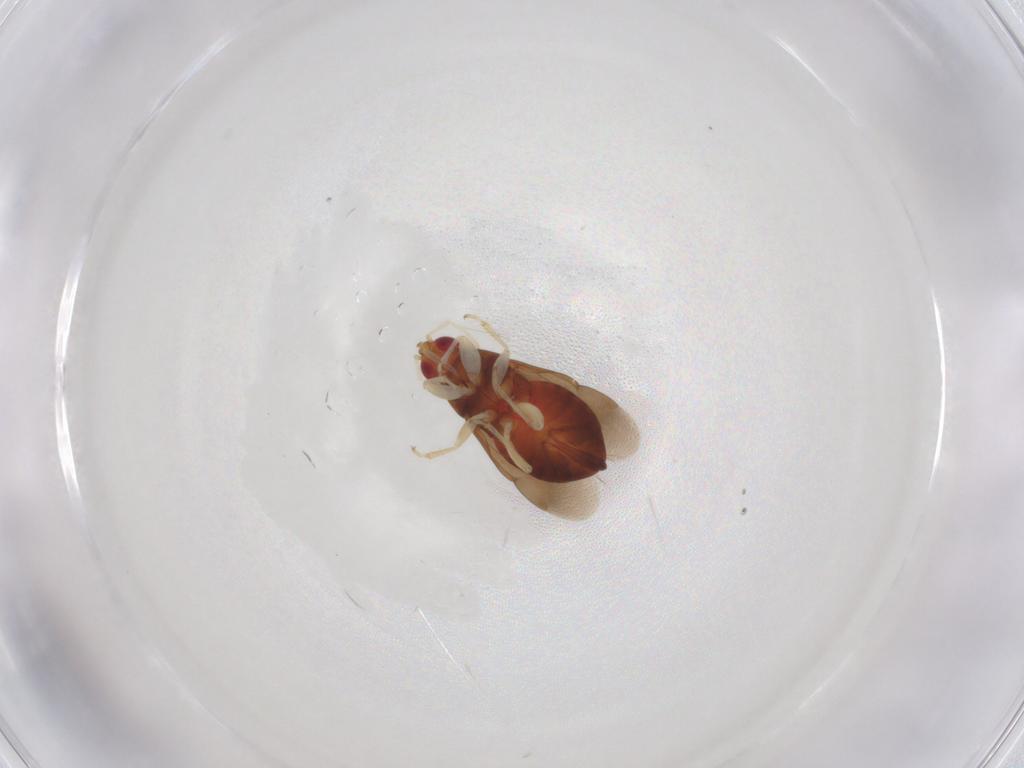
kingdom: Animalia
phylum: Arthropoda
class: Insecta
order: Hemiptera
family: Anthocoridae
